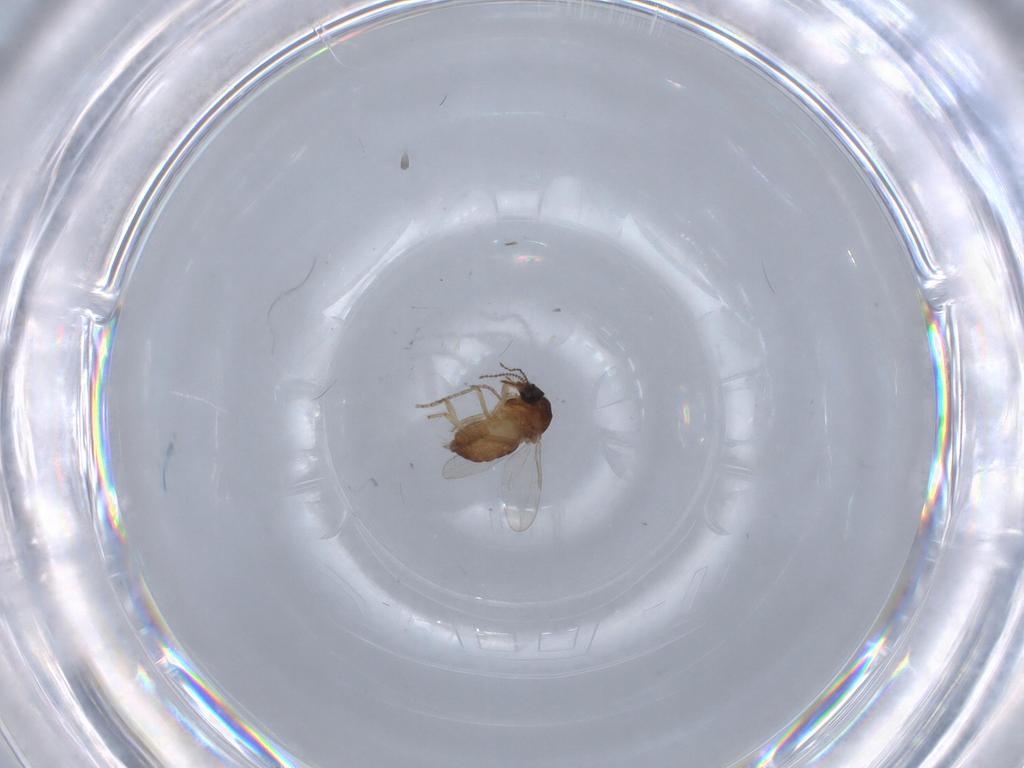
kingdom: Animalia
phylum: Arthropoda
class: Insecta
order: Diptera
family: Ceratopogonidae
